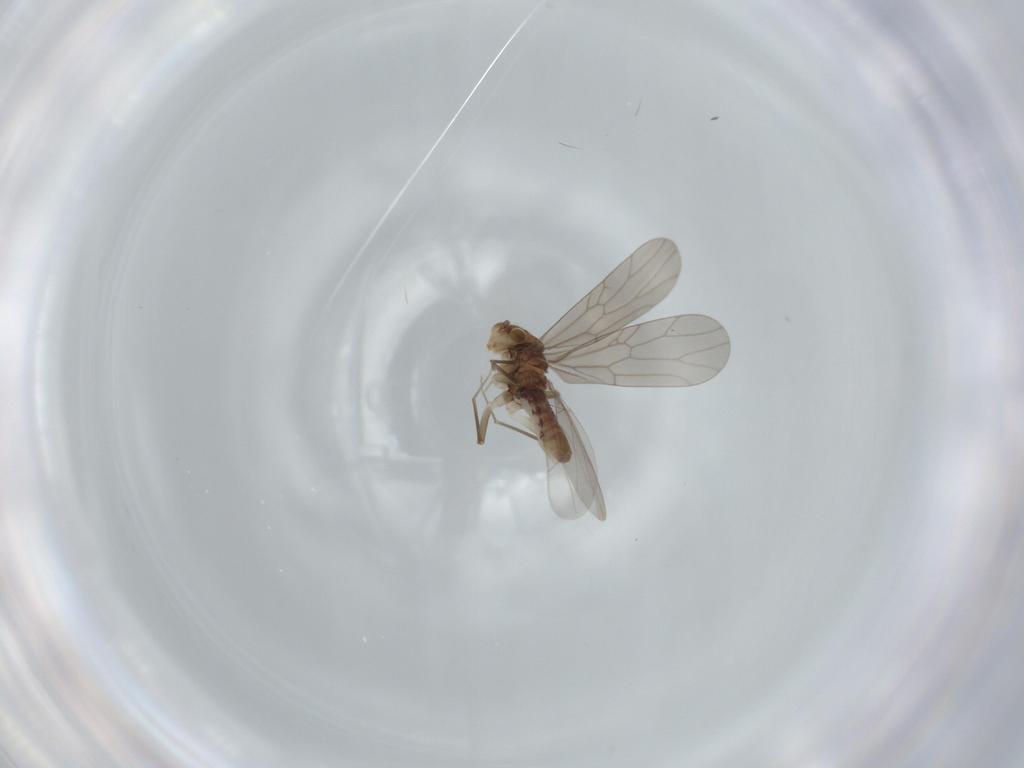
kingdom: Animalia
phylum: Arthropoda
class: Insecta
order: Psocodea
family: Lepidopsocidae
